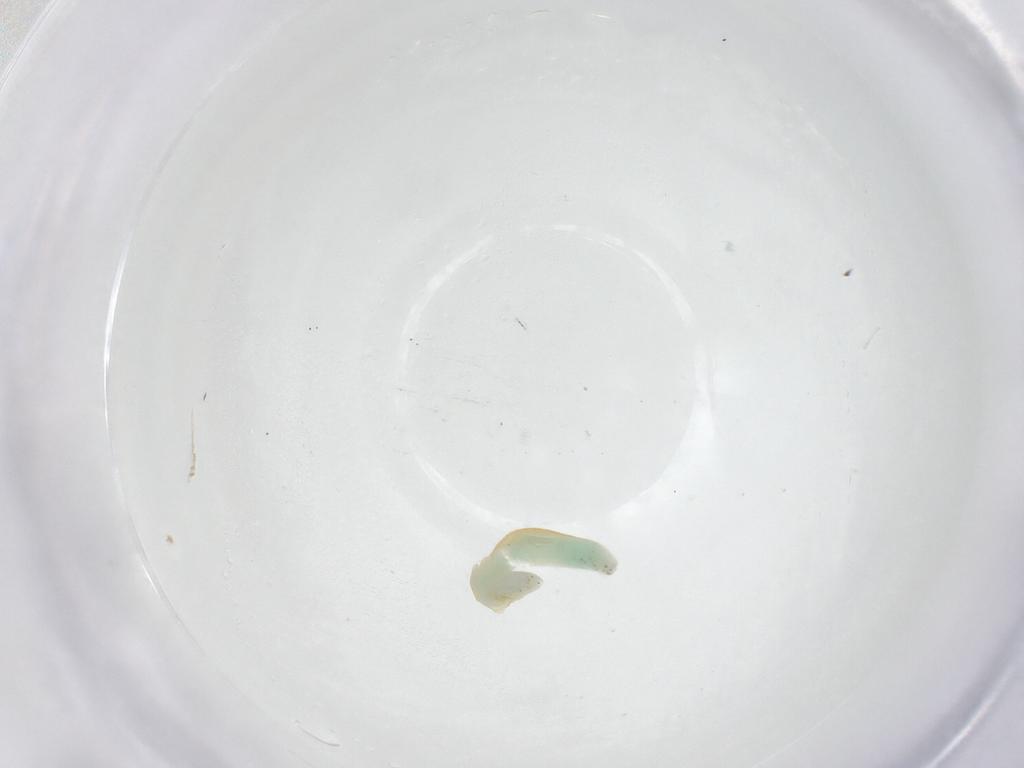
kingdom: Animalia
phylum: Arthropoda
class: Insecta
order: Hymenoptera
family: Dryinidae
